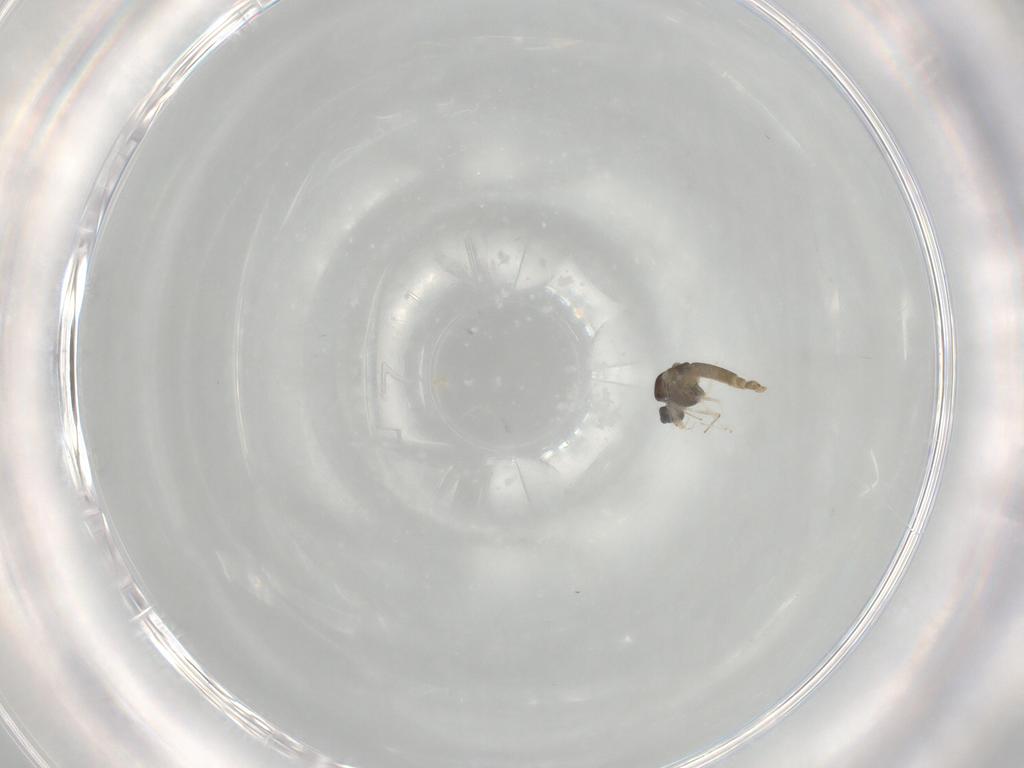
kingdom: Animalia
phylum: Arthropoda
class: Insecta
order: Diptera
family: Chironomidae
